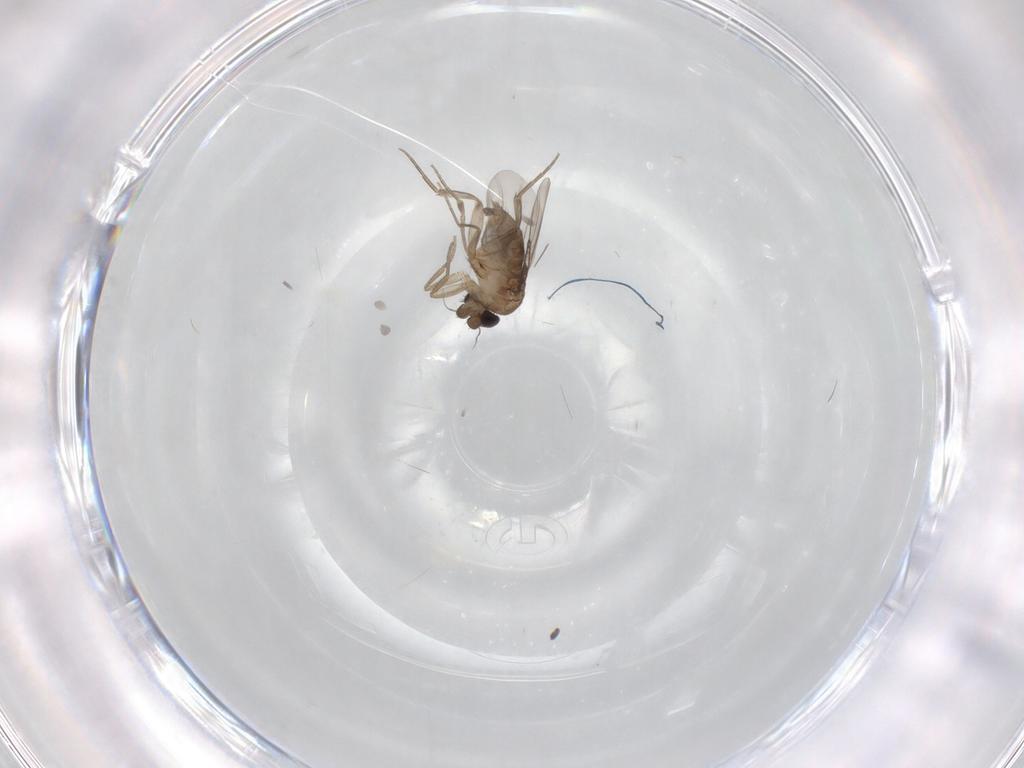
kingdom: Animalia
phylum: Arthropoda
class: Insecta
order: Diptera
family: Phoridae
